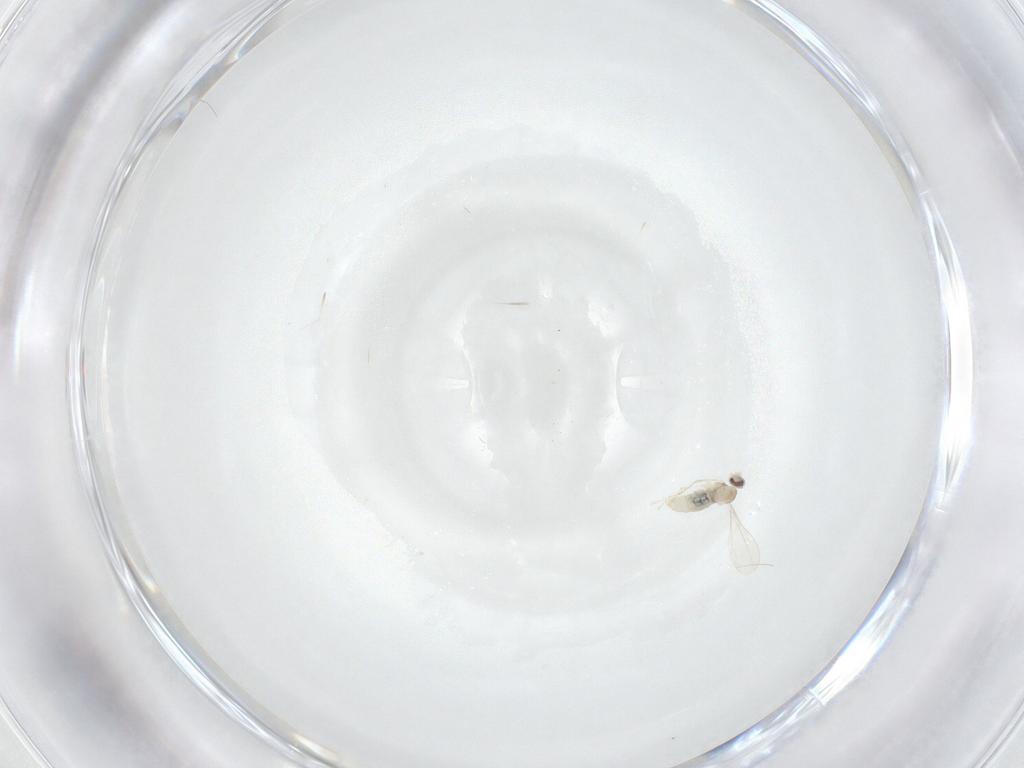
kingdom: Animalia
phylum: Arthropoda
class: Insecta
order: Diptera
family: Cecidomyiidae
